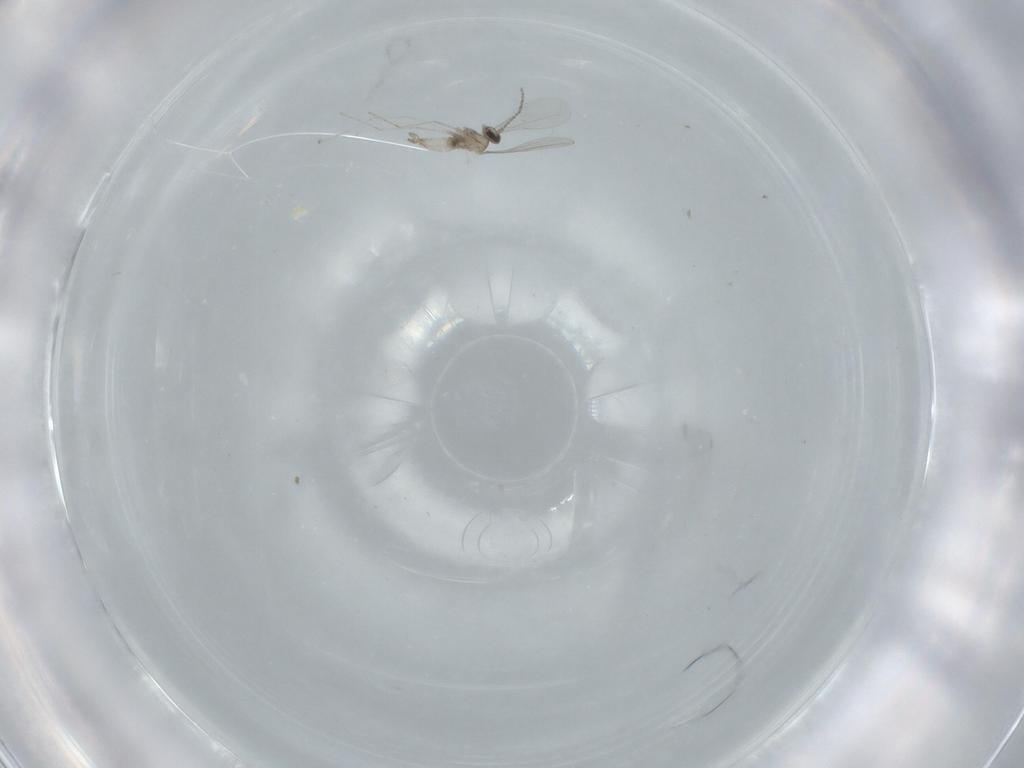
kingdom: Animalia
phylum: Arthropoda
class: Insecta
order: Diptera
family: Cecidomyiidae
